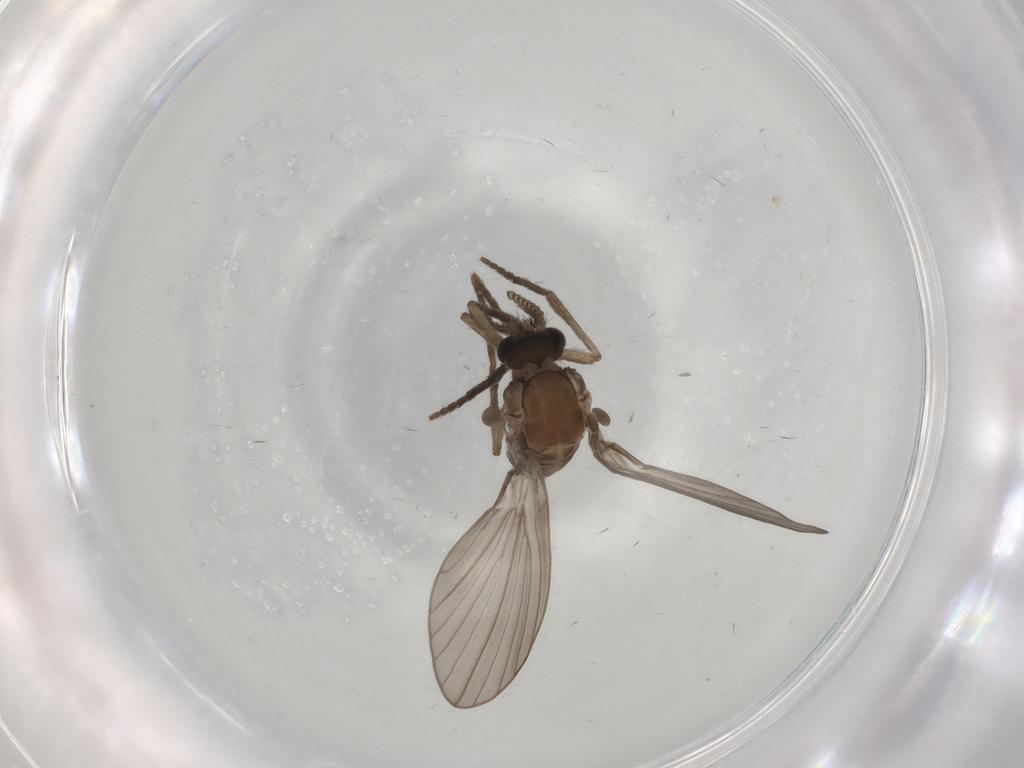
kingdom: Animalia
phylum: Arthropoda
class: Insecta
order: Diptera
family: Psychodidae
